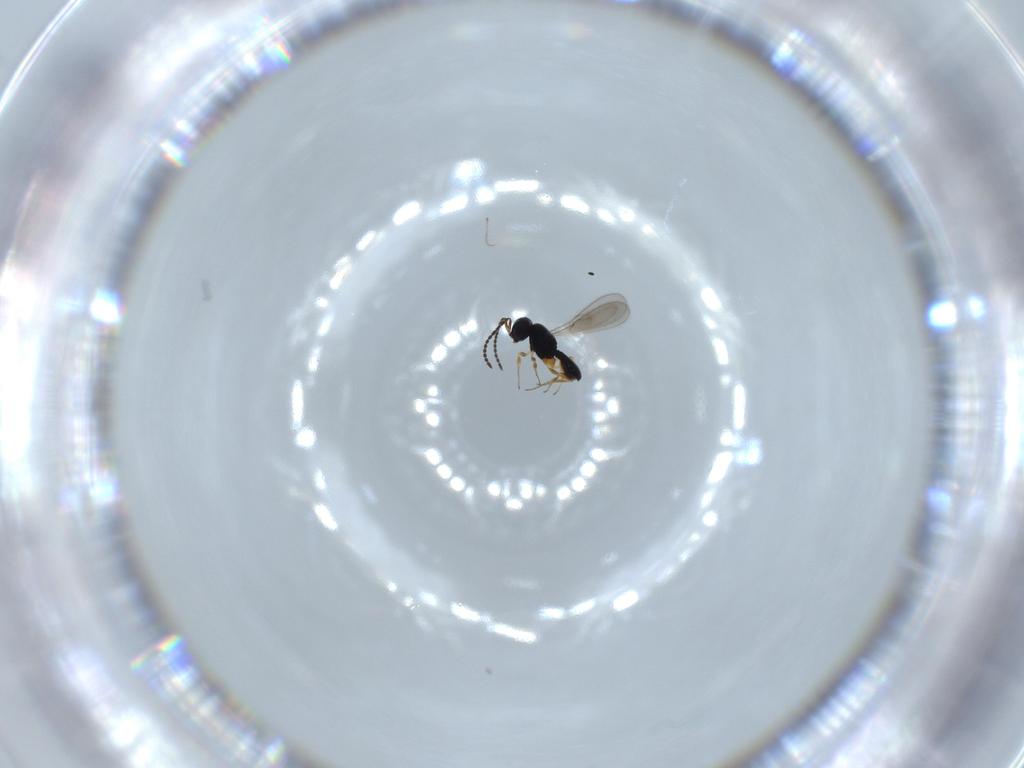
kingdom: Animalia
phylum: Arthropoda
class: Insecta
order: Hymenoptera
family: Scelionidae
